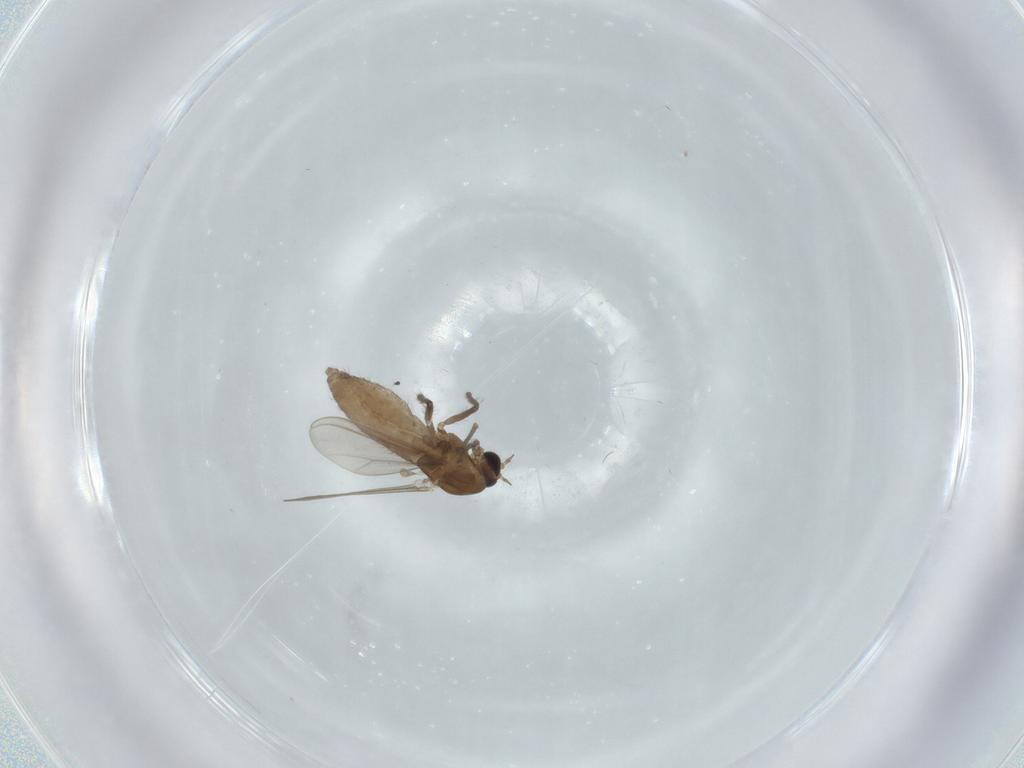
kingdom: Animalia
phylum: Arthropoda
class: Insecta
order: Diptera
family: Chironomidae
